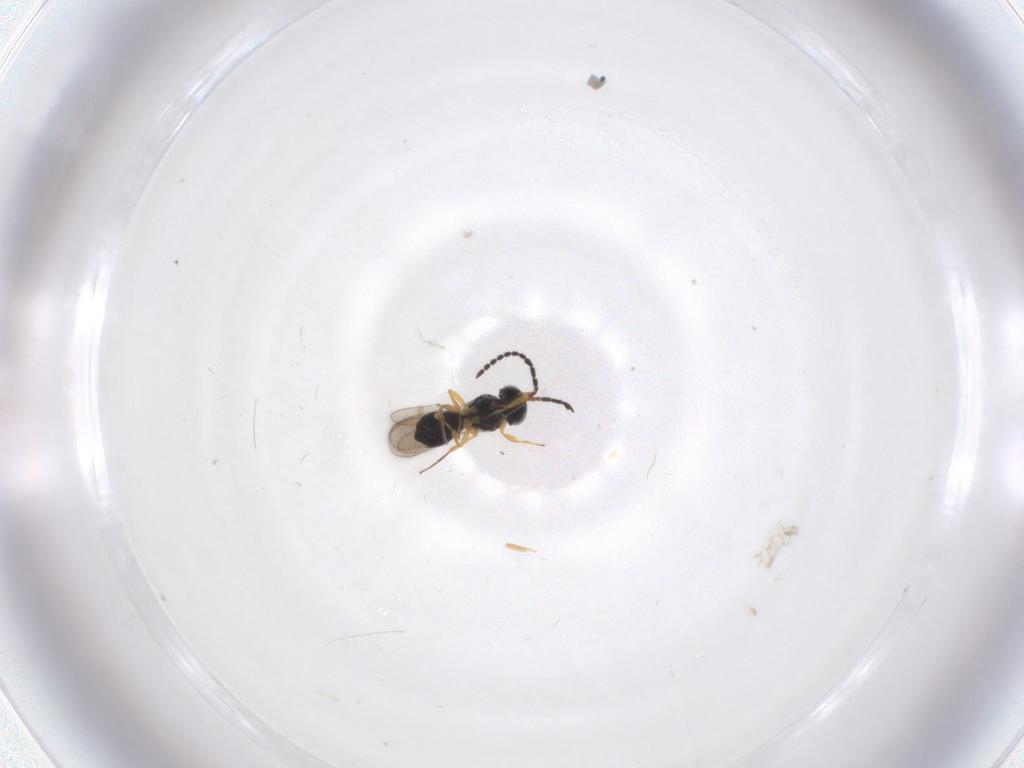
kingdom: Animalia
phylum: Arthropoda
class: Insecta
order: Hymenoptera
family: Scelionidae
